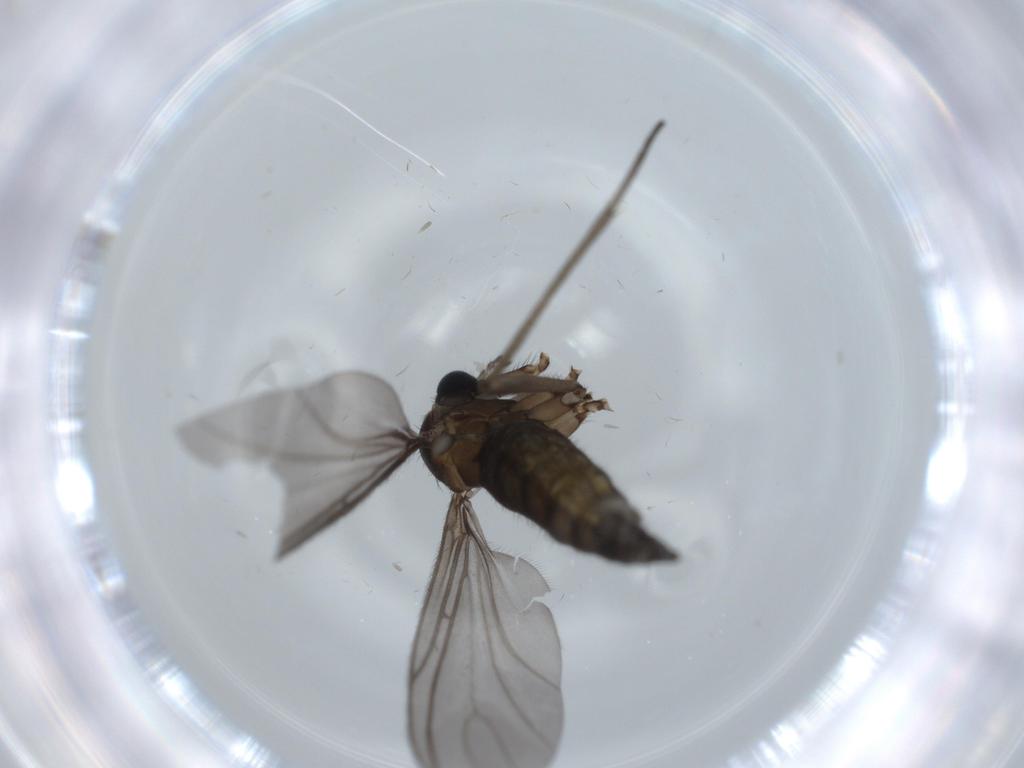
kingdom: Animalia
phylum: Arthropoda
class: Insecta
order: Diptera
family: Sciaridae
